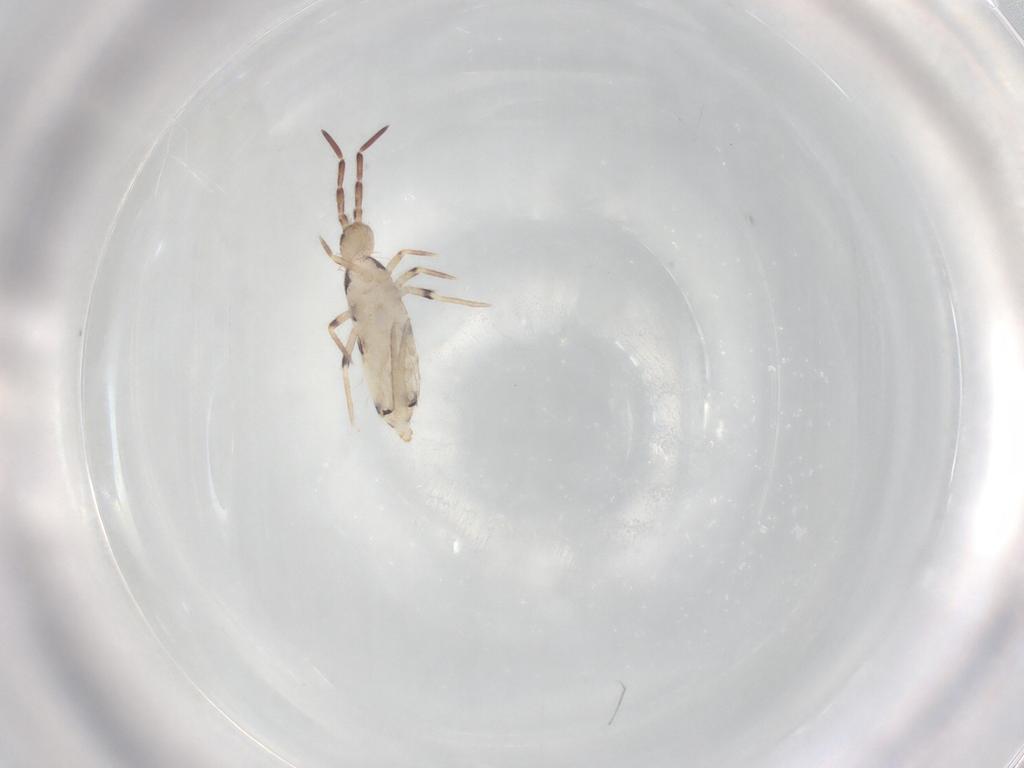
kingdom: Animalia
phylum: Arthropoda
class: Collembola
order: Entomobryomorpha
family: Entomobryidae
